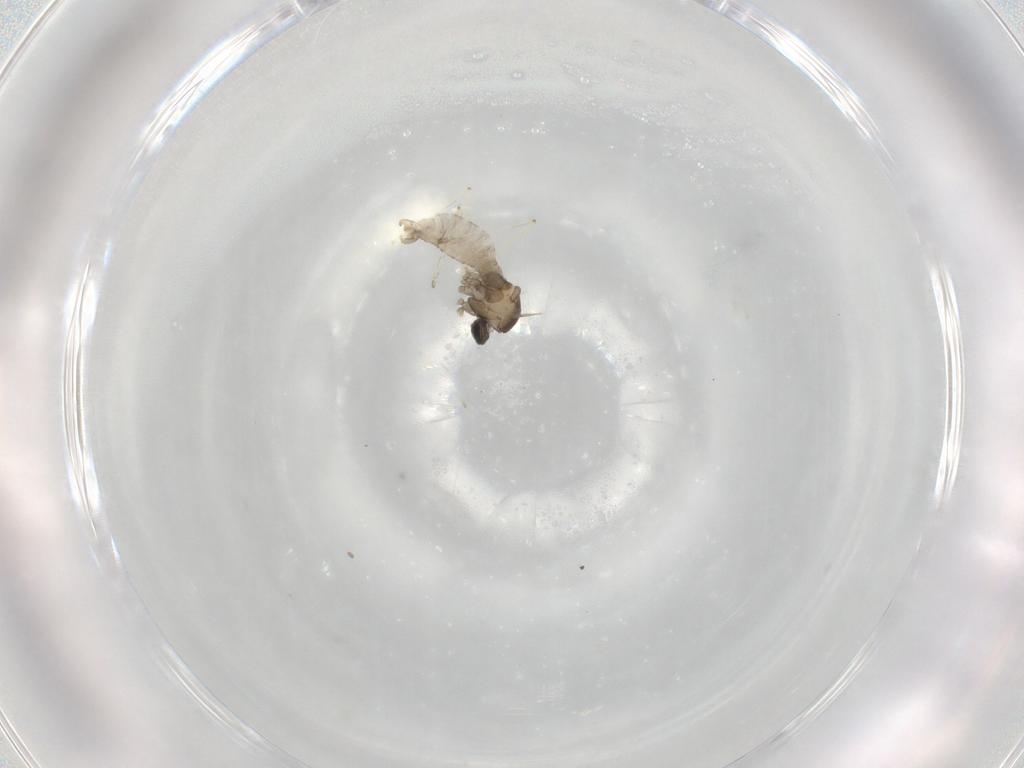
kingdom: Animalia
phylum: Arthropoda
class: Insecta
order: Diptera
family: Cecidomyiidae
